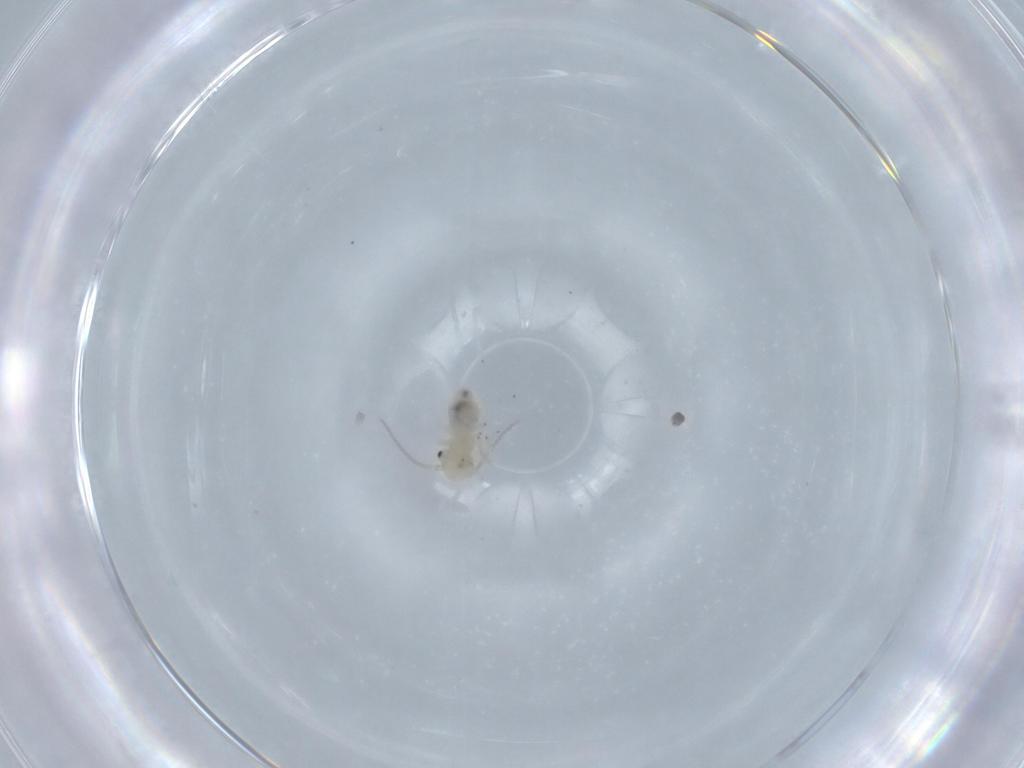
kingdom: Animalia
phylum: Arthropoda
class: Insecta
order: Psocodea
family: Caeciliusidae
